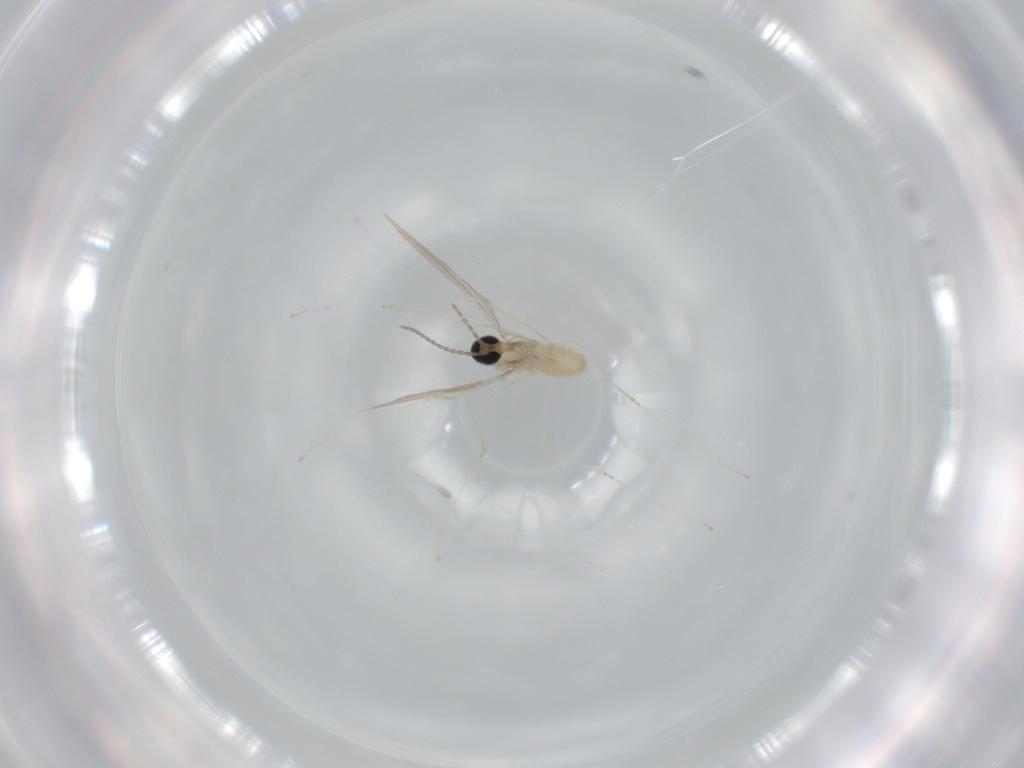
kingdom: Animalia
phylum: Arthropoda
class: Insecta
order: Diptera
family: Cecidomyiidae
